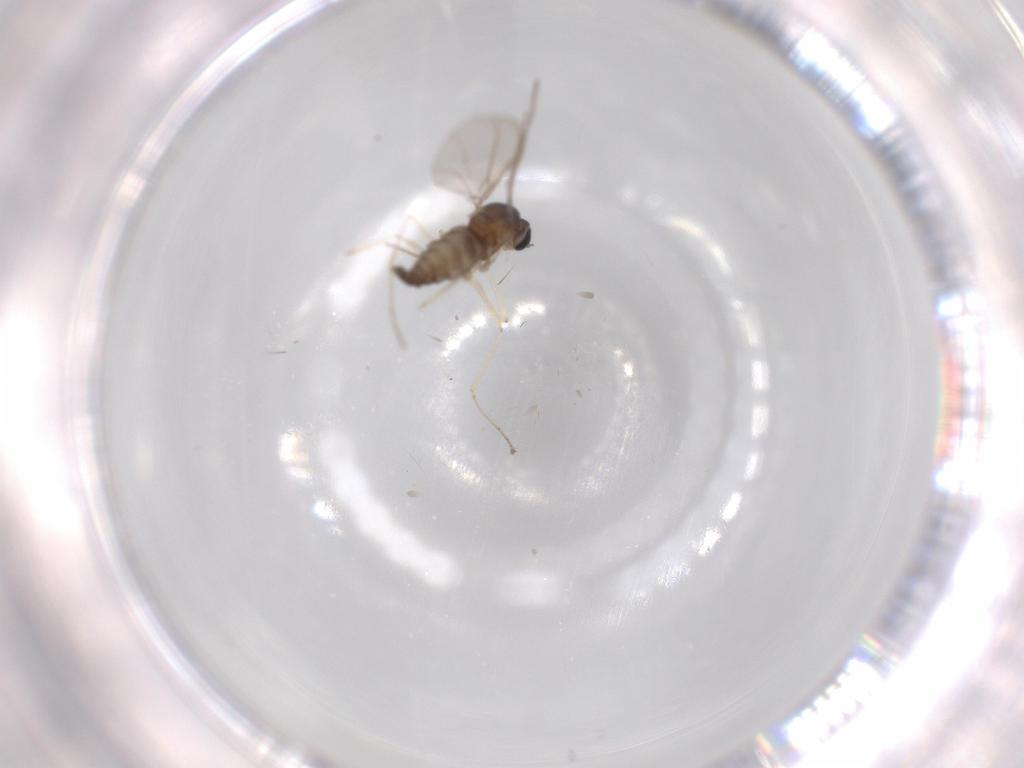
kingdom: Animalia
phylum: Arthropoda
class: Insecta
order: Diptera
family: Cecidomyiidae
